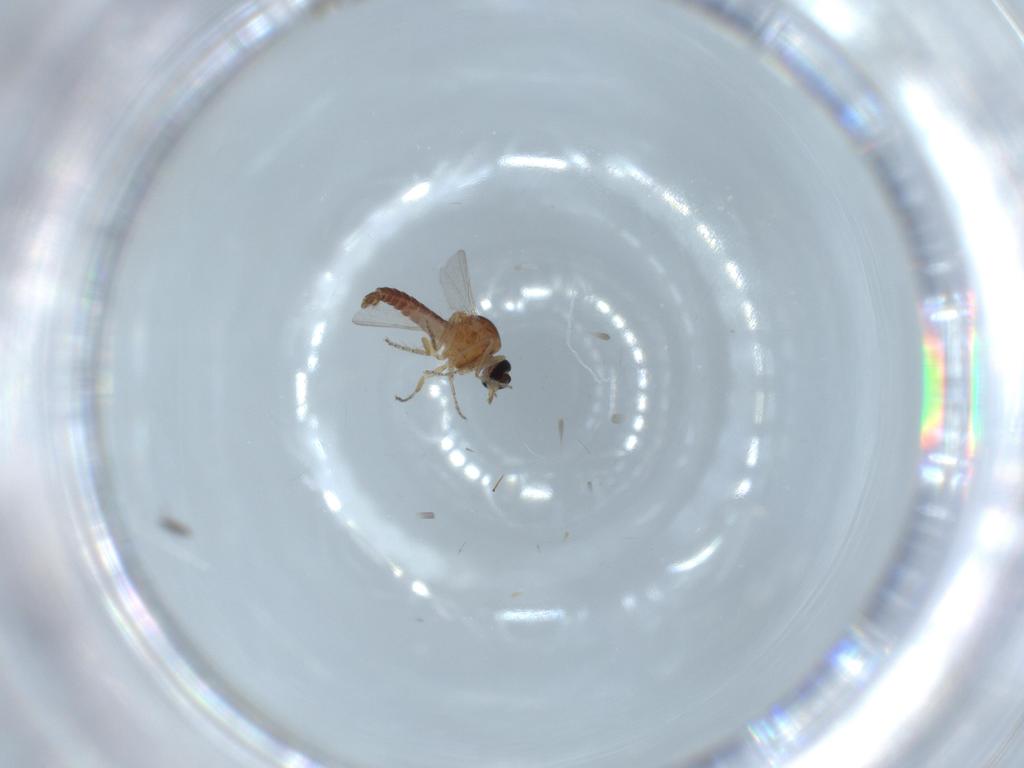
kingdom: Animalia
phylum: Arthropoda
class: Insecta
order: Diptera
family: Ceratopogonidae
